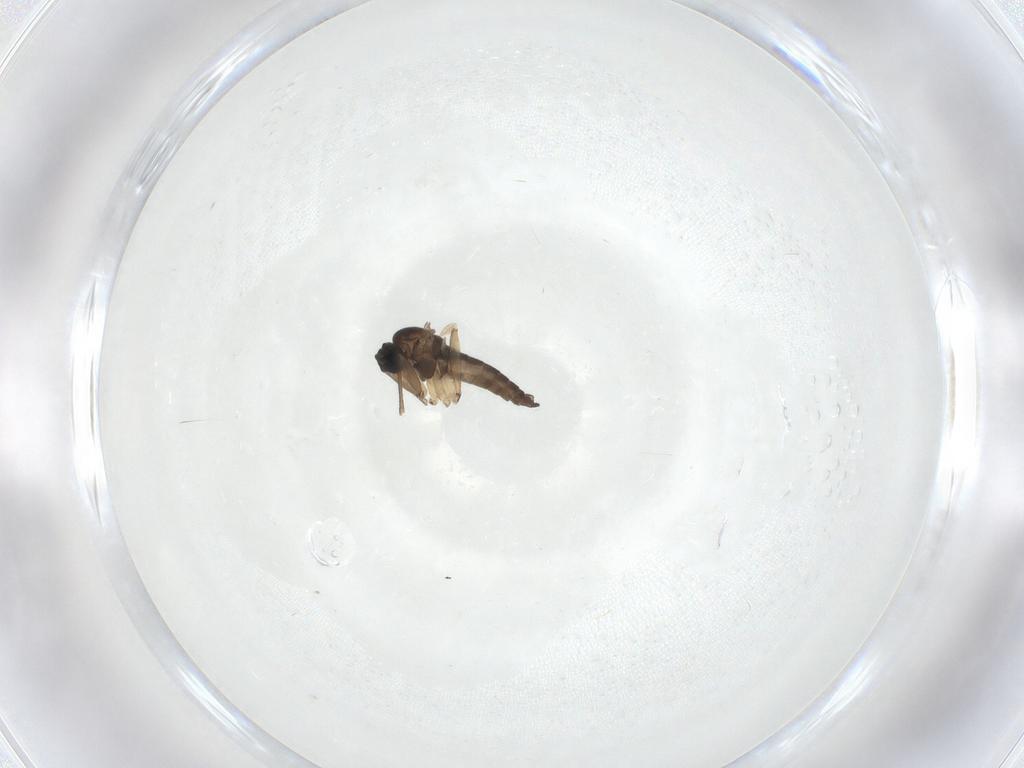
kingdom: Animalia
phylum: Arthropoda
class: Insecta
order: Diptera
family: Sciaridae
